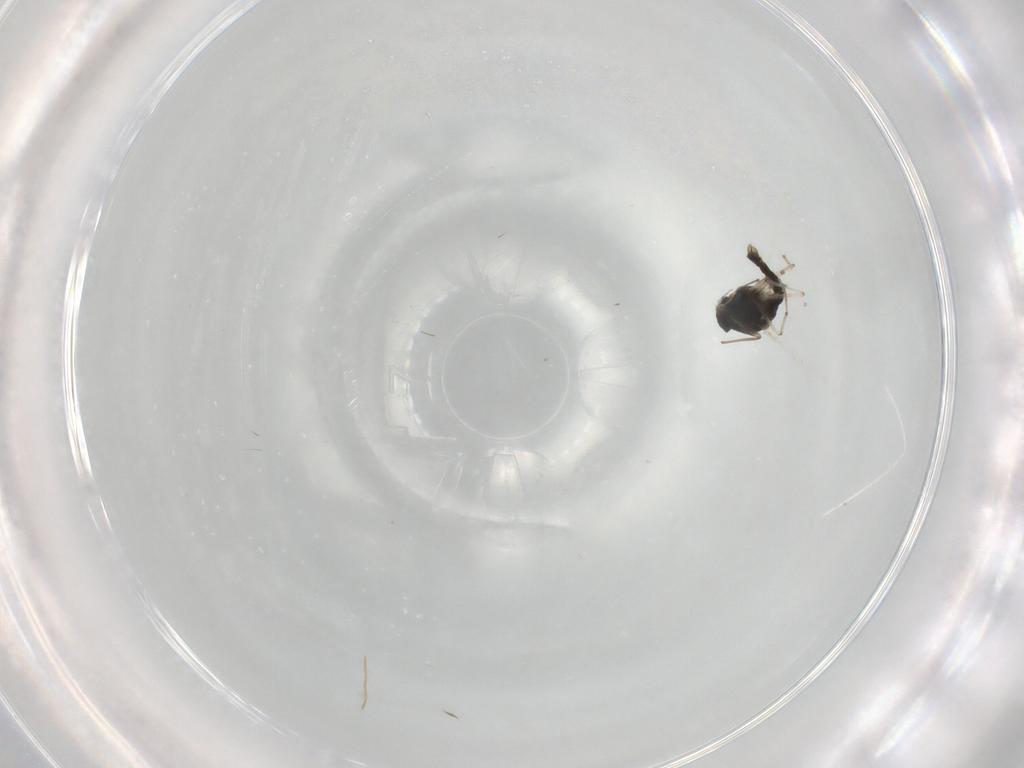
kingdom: Animalia
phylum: Arthropoda
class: Insecta
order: Diptera
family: Chironomidae
